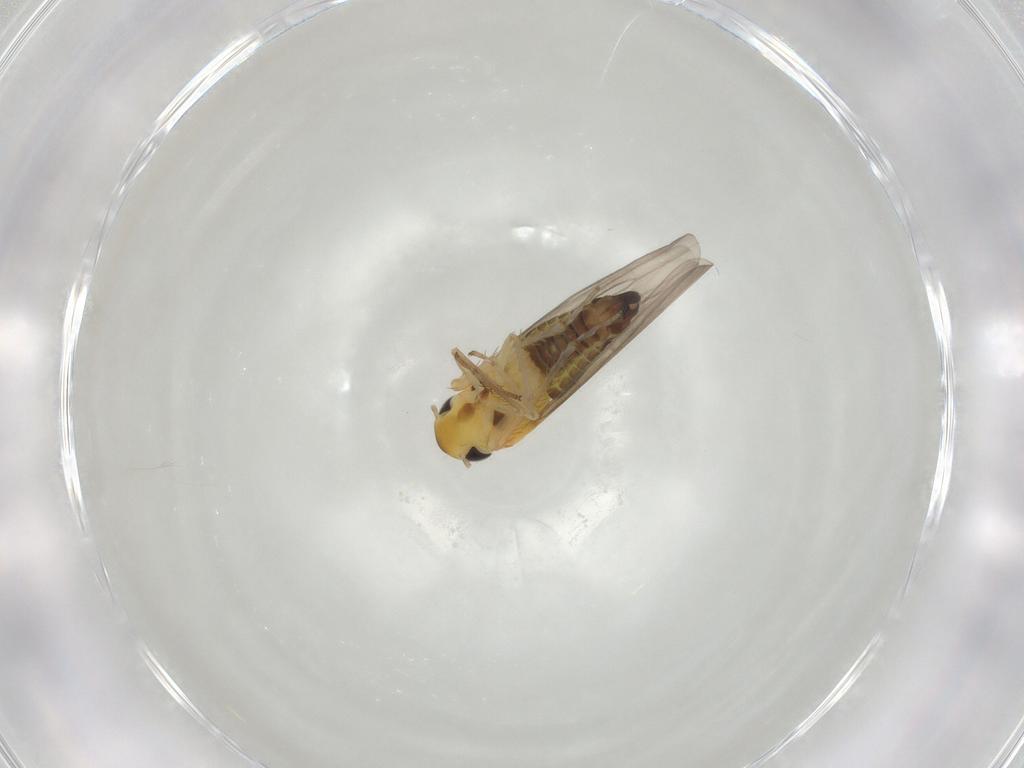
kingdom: Animalia
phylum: Arthropoda
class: Insecta
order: Hemiptera
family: Cicadellidae
